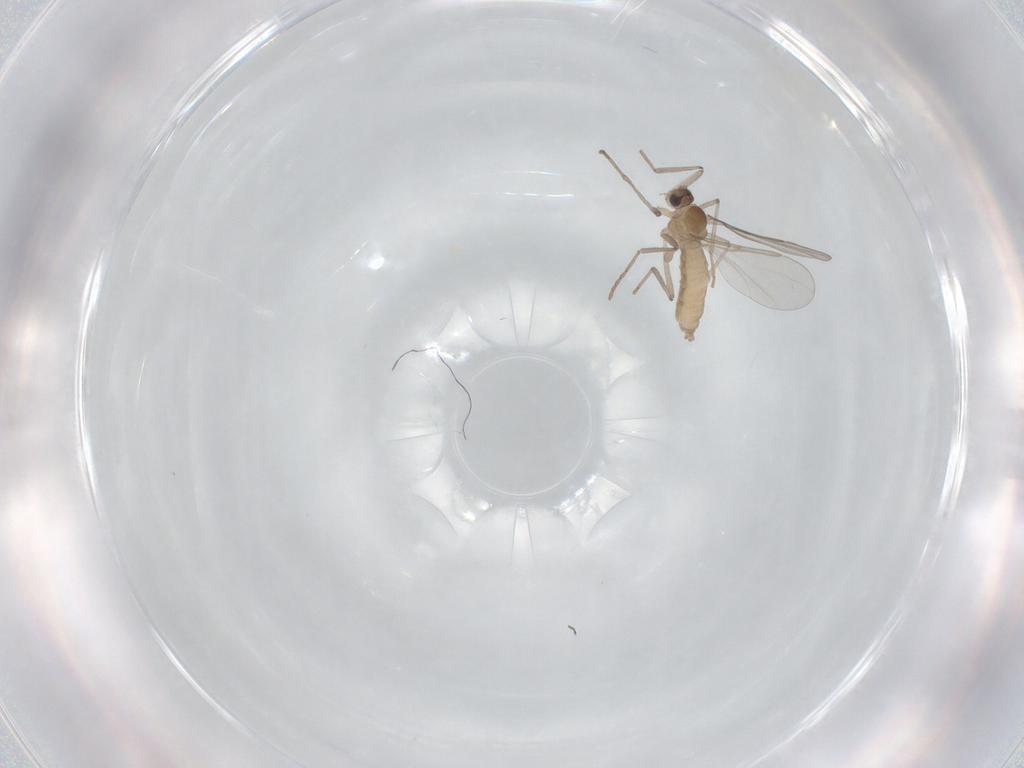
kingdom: Animalia
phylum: Arthropoda
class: Insecta
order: Diptera
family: Cecidomyiidae
